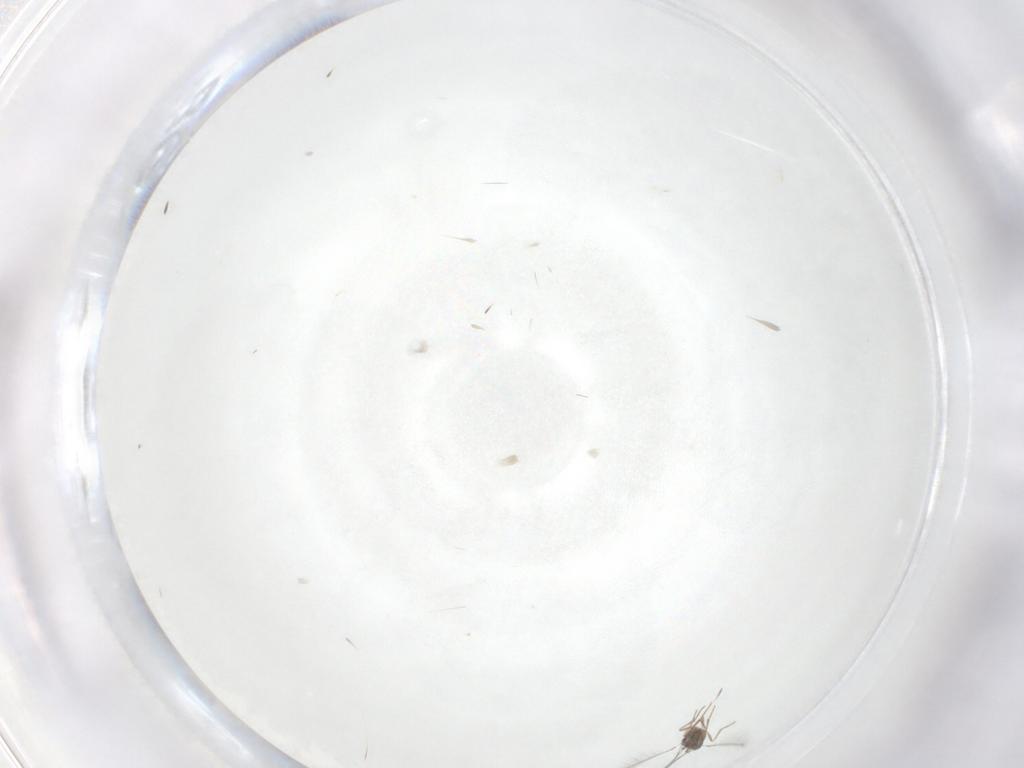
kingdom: Animalia
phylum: Arthropoda
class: Insecta
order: Hymenoptera
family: Mymaridae
